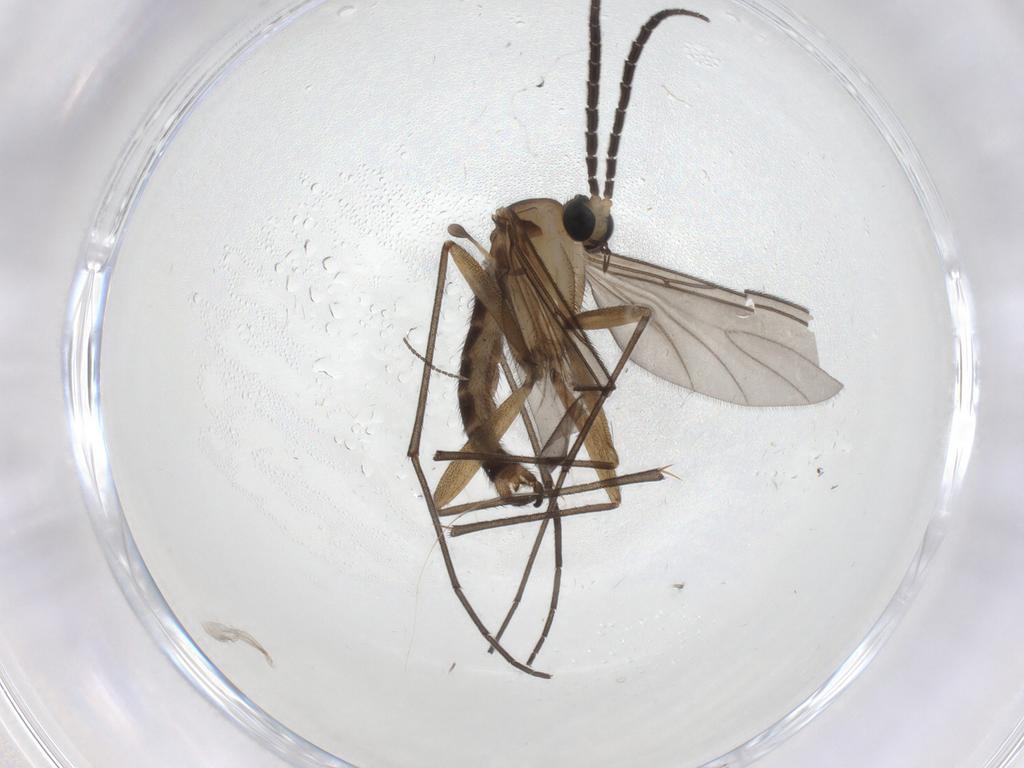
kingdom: Animalia
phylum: Arthropoda
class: Insecta
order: Diptera
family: Sciaridae
